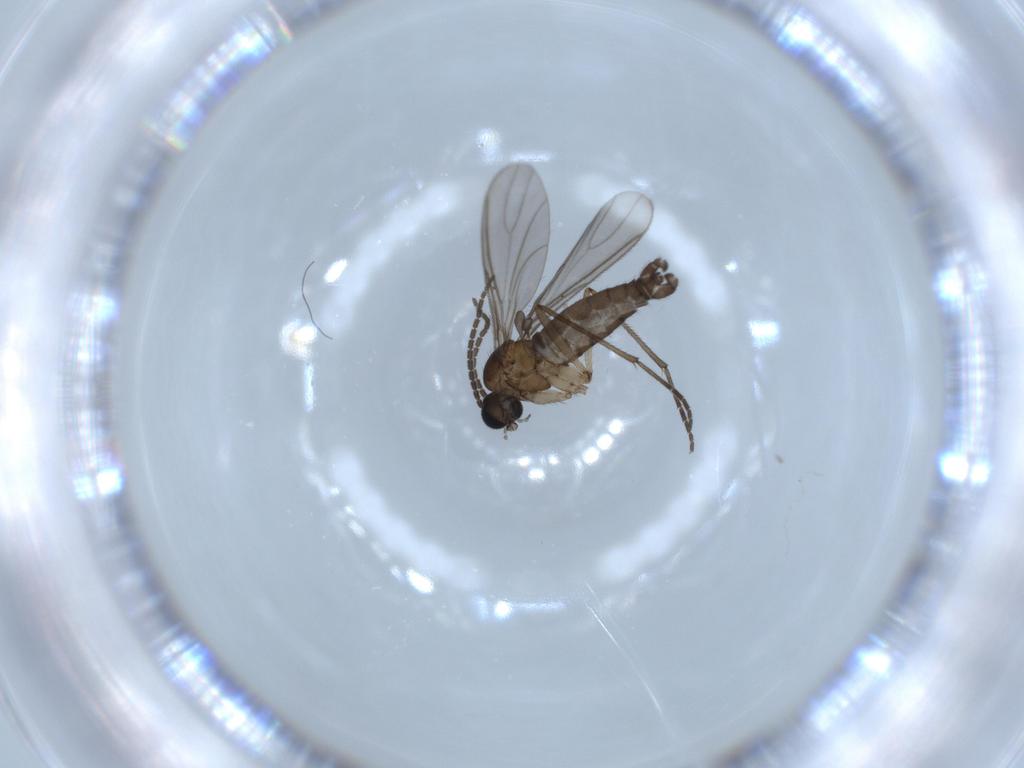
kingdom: Animalia
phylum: Arthropoda
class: Insecta
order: Diptera
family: Sciaridae
